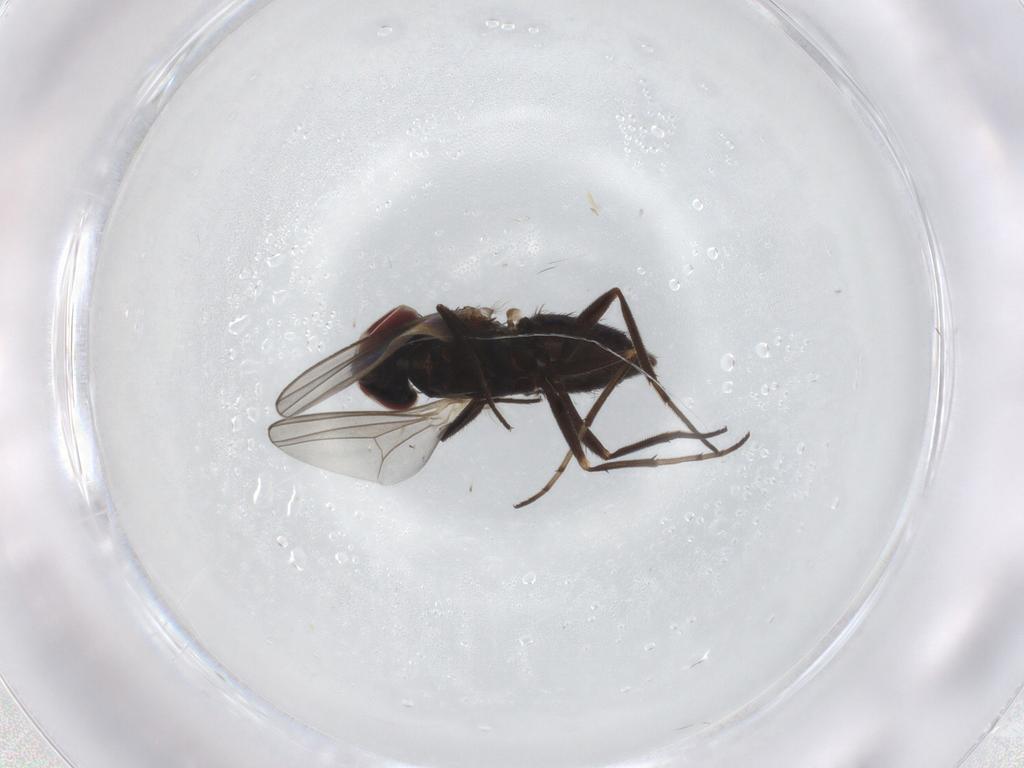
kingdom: Animalia
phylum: Arthropoda
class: Insecta
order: Diptera
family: Dolichopodidae
